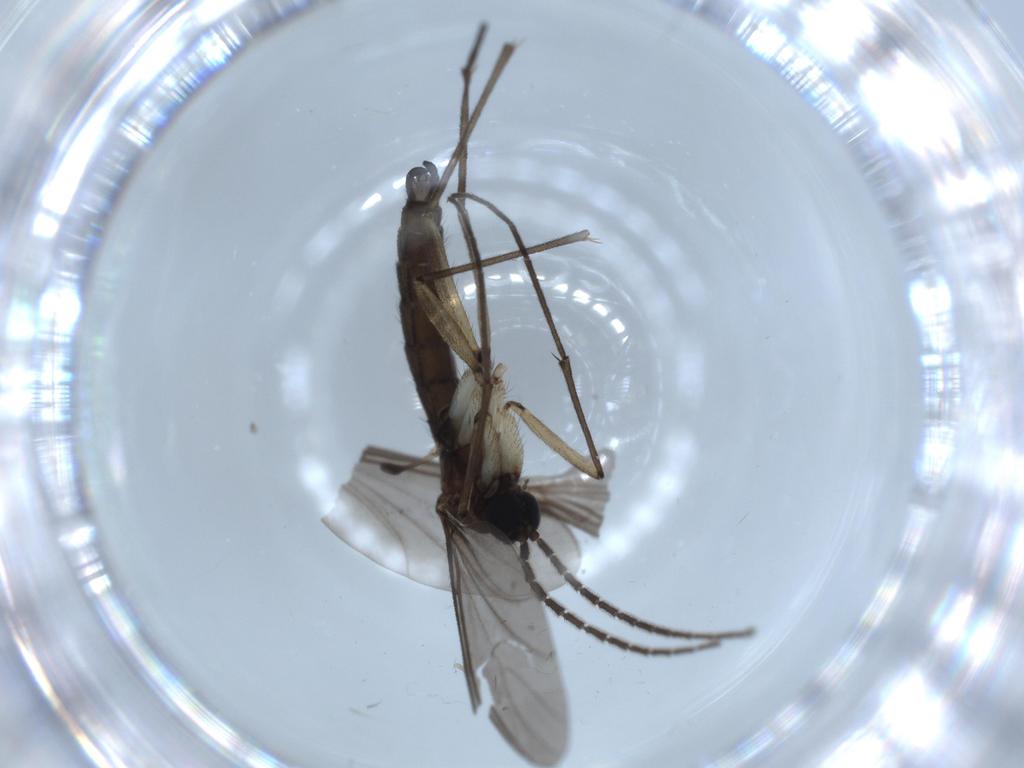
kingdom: Animalia
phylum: Arthropoda
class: Insecta
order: Diptera
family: Sciaridae
